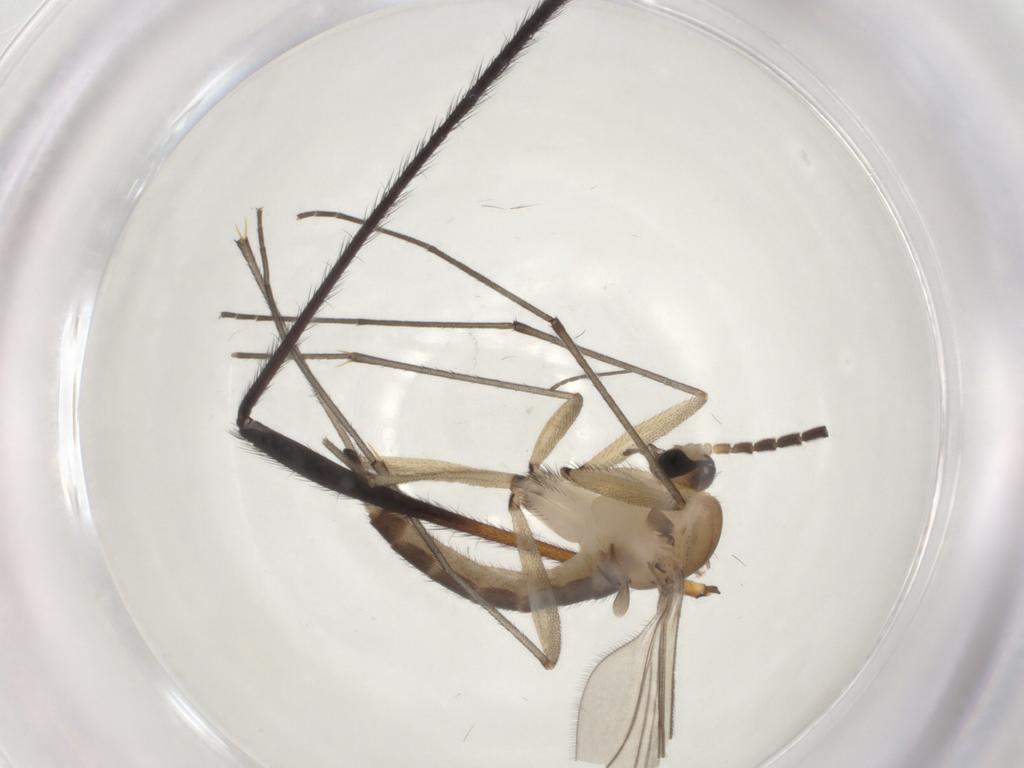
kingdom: Animalia
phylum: Arthropoda
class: Insecta
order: Diptera
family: Sciaridae
